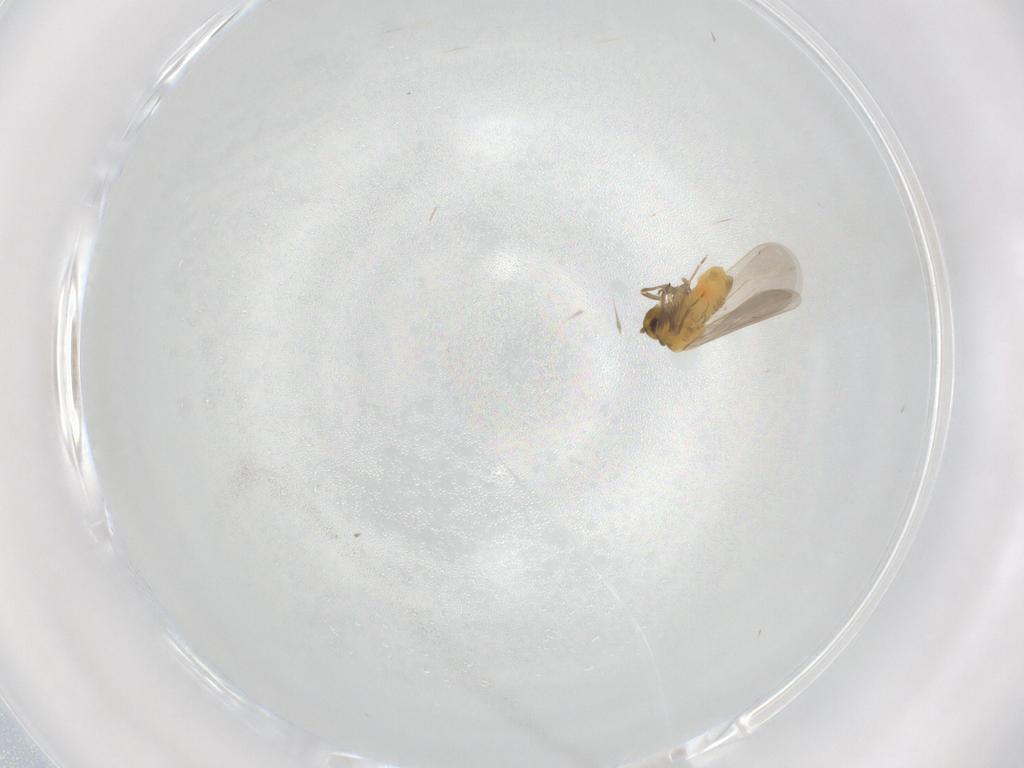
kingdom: Animalia
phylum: Arthropoda
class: Insecta
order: Hemiptera
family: Aleyrodidae
